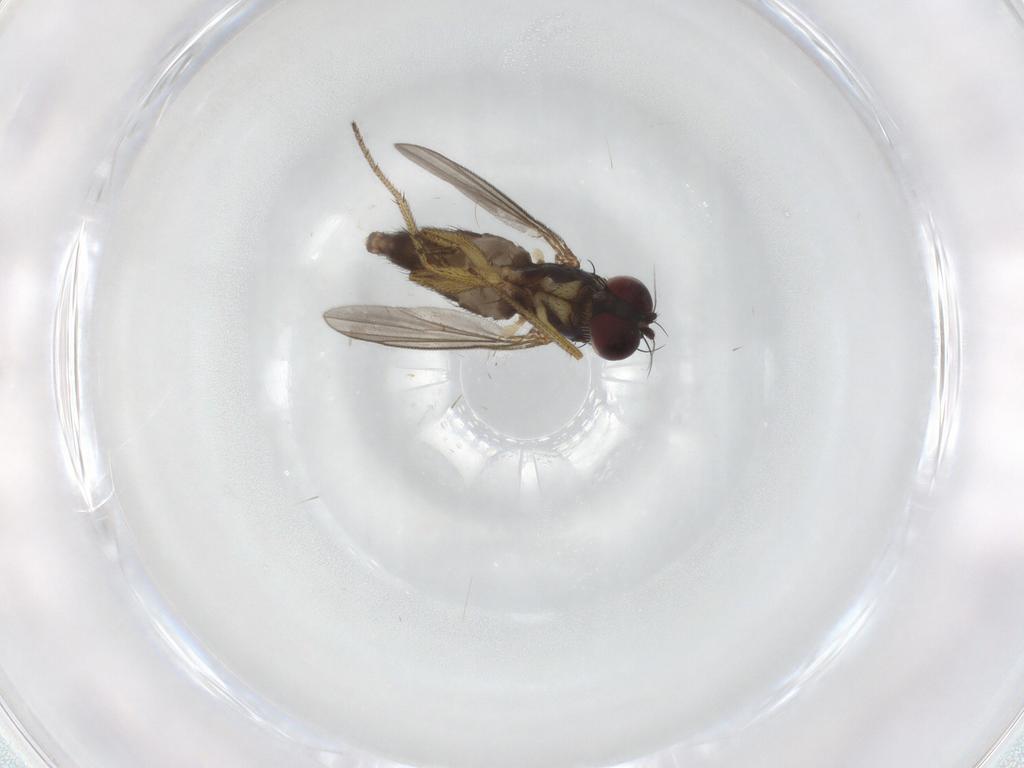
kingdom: Animalia
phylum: Arthropoda
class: Insecta
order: Diptera
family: Dolichopodidae
